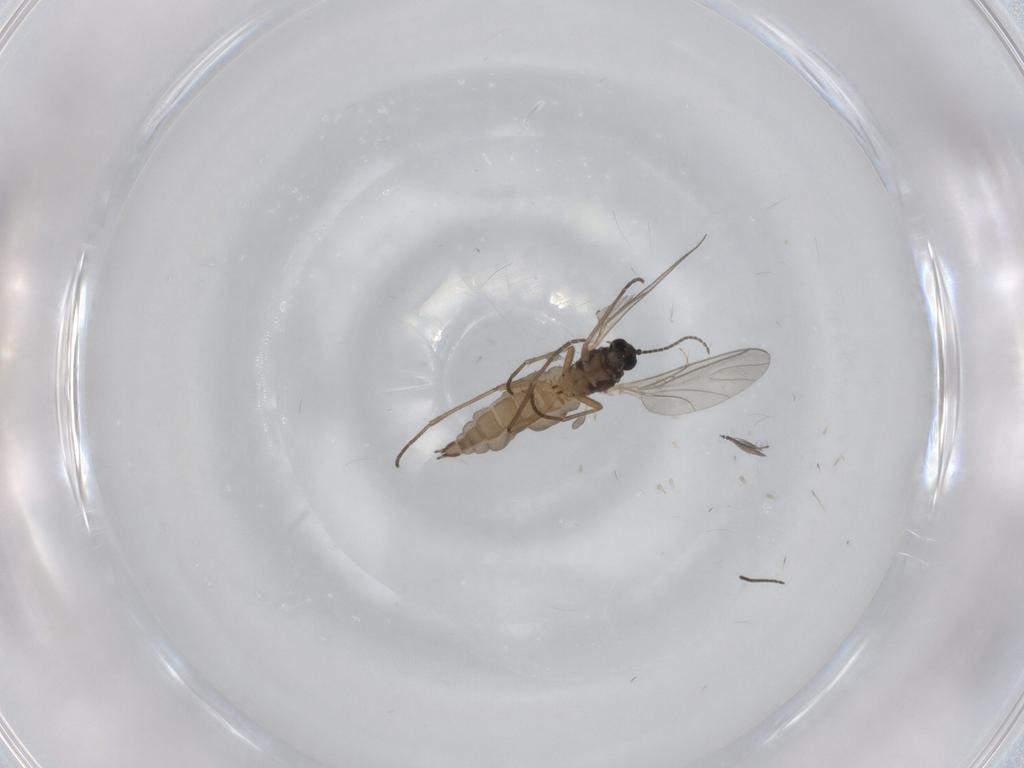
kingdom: Animalia
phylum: Arthropoda
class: Insecta
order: Diptera
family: Sciaridae
